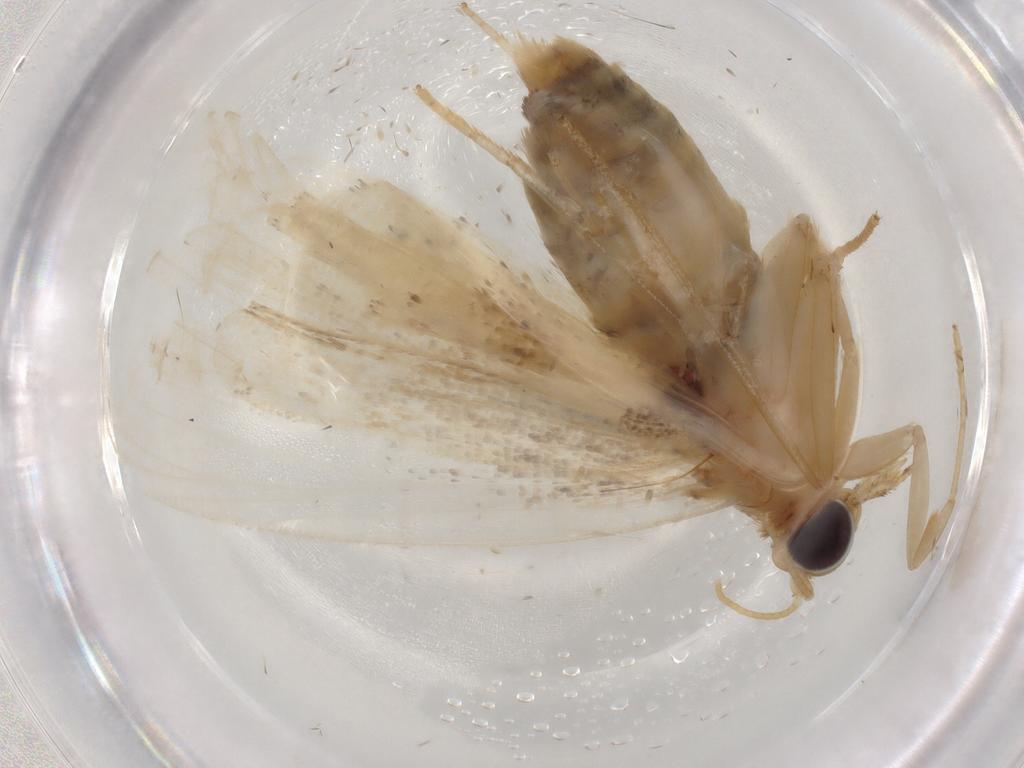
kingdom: Animalia
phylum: Arthropoda
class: Insecta
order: Lepidoptera
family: Erebidae
